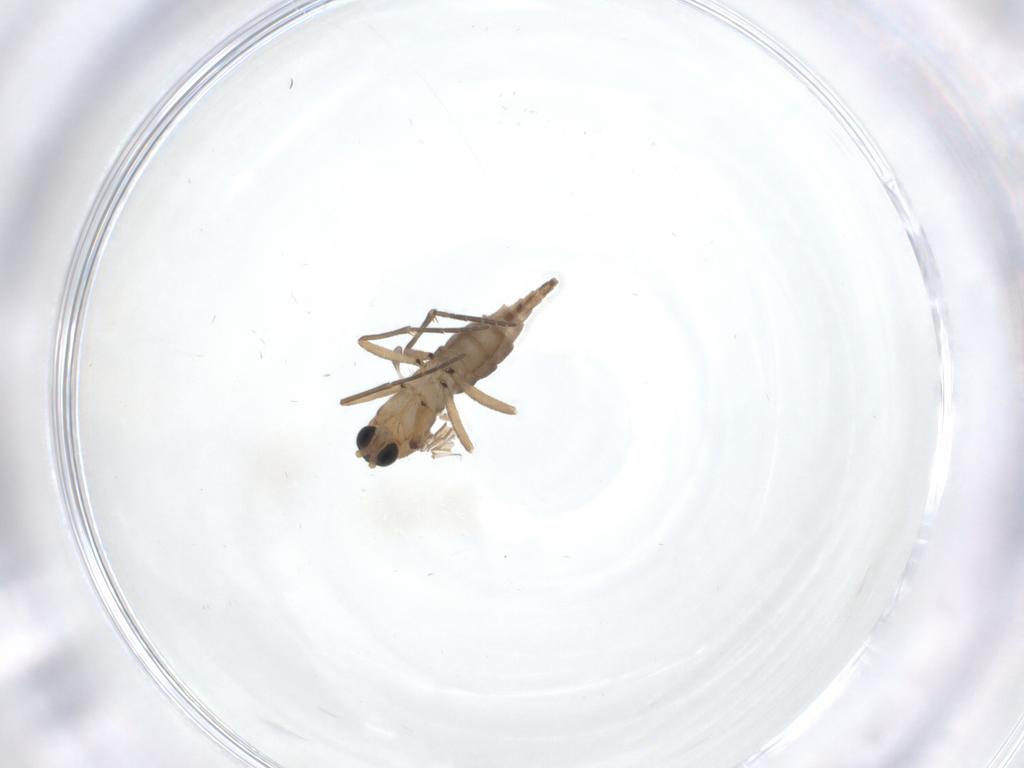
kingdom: Animalia
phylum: Arthropoda
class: Insecta
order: Diptera
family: Sciaridae
